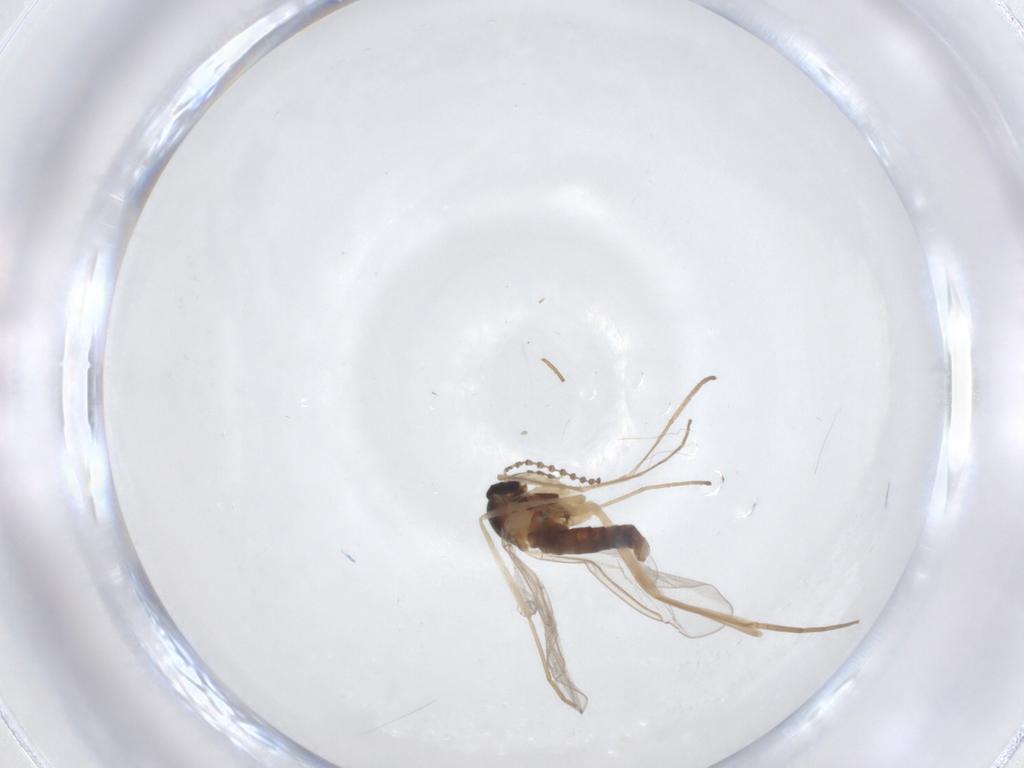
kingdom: Animalia
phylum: Arthropoda
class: Insecta
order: Diptera
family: Cecidomyiidae
